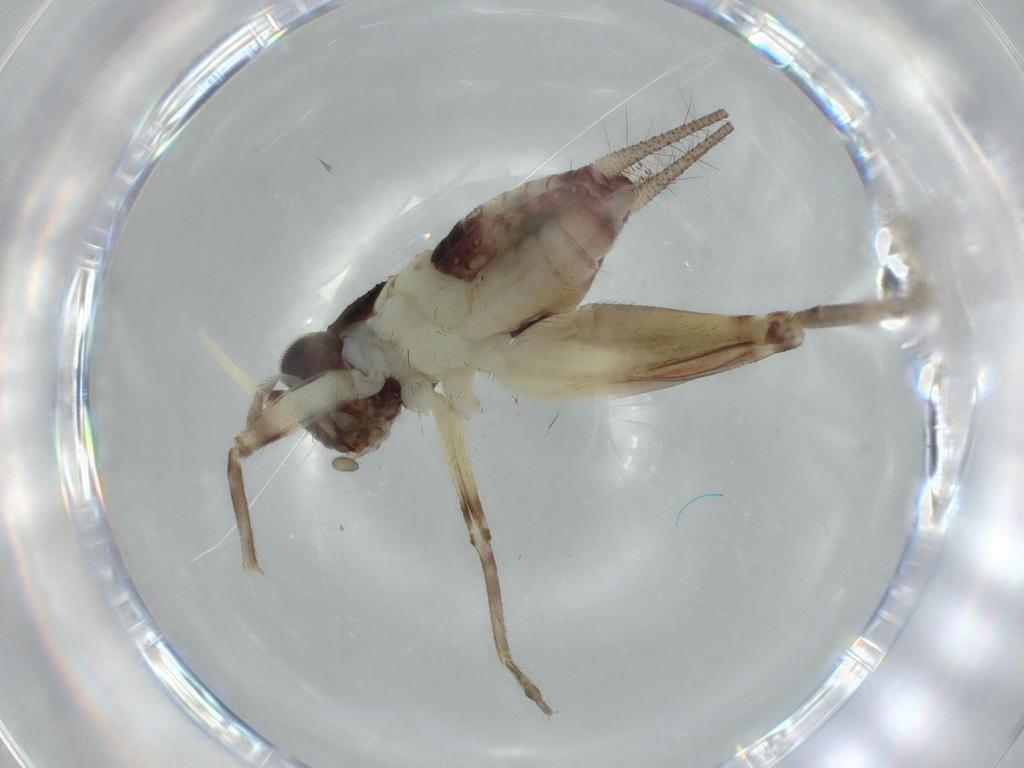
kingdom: Animalia
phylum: Arthropoda
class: Insecta
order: Orthoptera
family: Trigonidiidae
